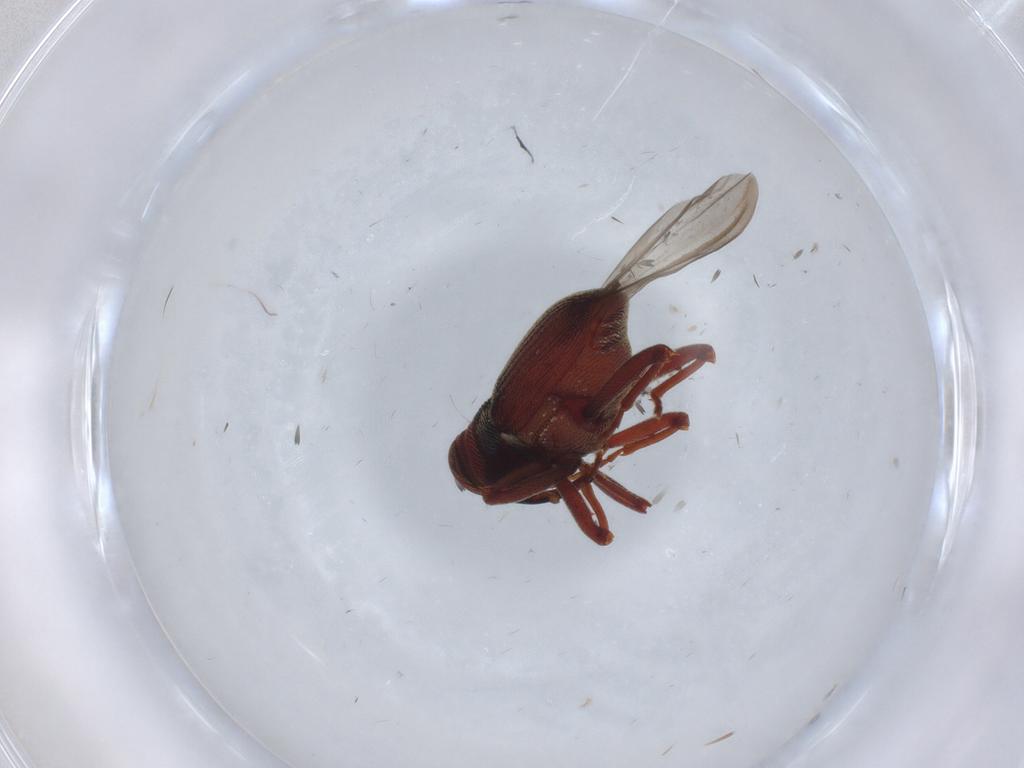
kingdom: Animalia
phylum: Arthropoda
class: Insecta
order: Coleoptera
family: Curculionidae
